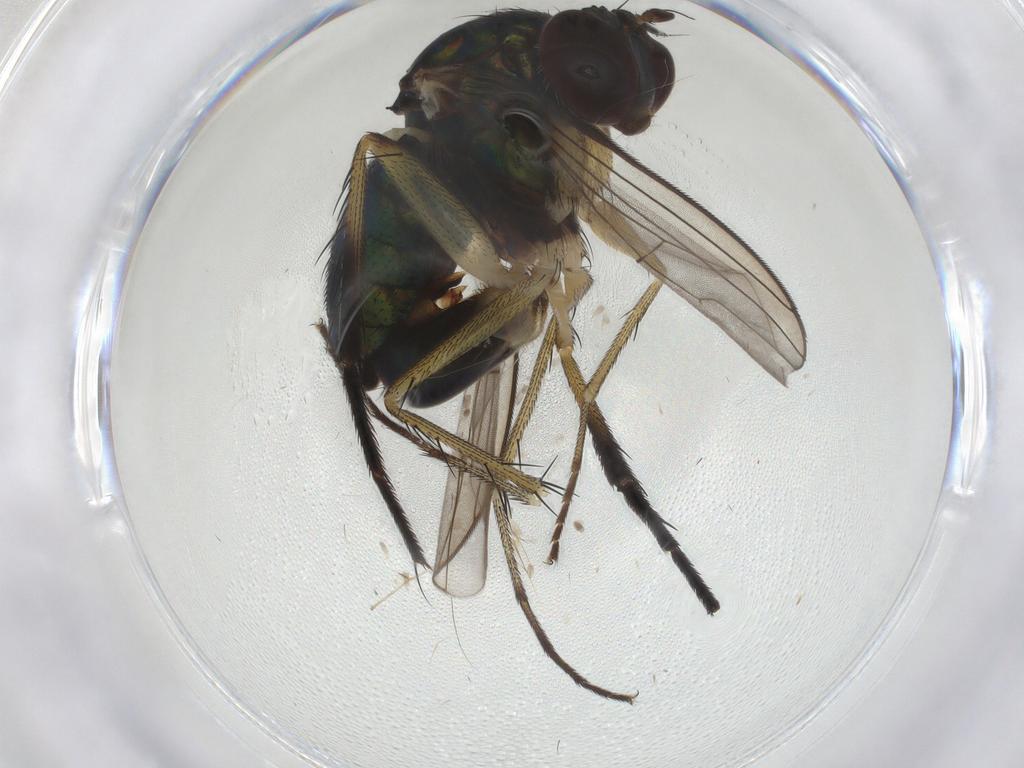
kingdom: Animalia
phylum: Arthropoda
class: Insecta
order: Diptera
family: Dolichopodidae
